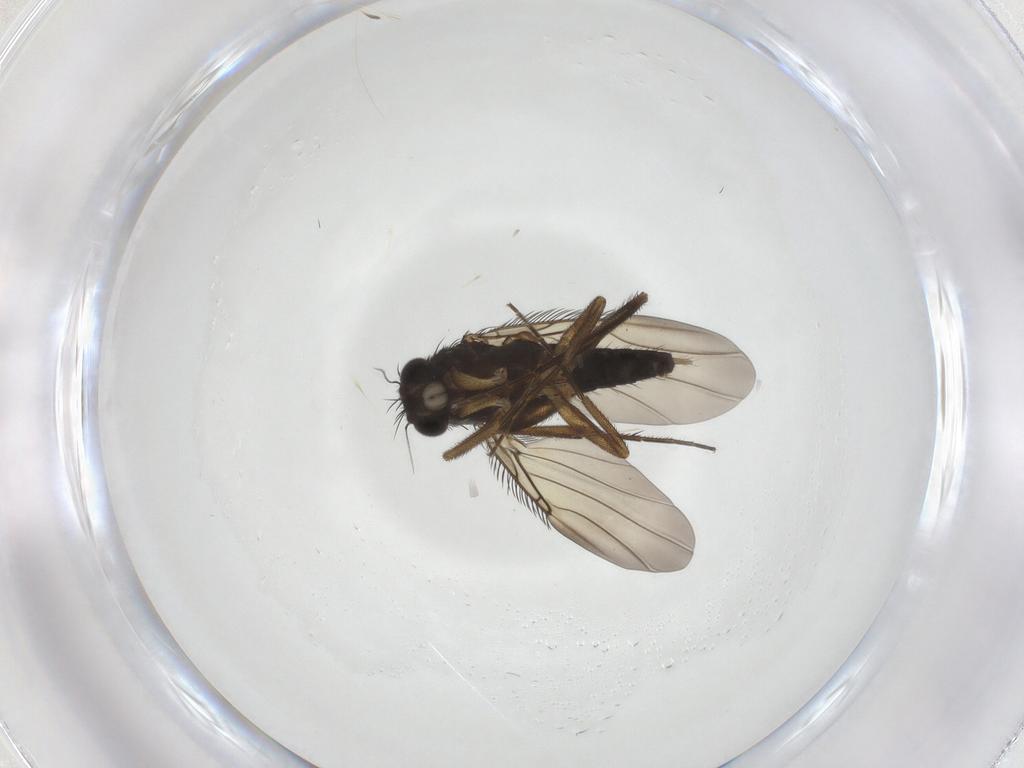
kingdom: Animalia
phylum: Arthropoda
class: Insecta
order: Diptera
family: Phoridae
